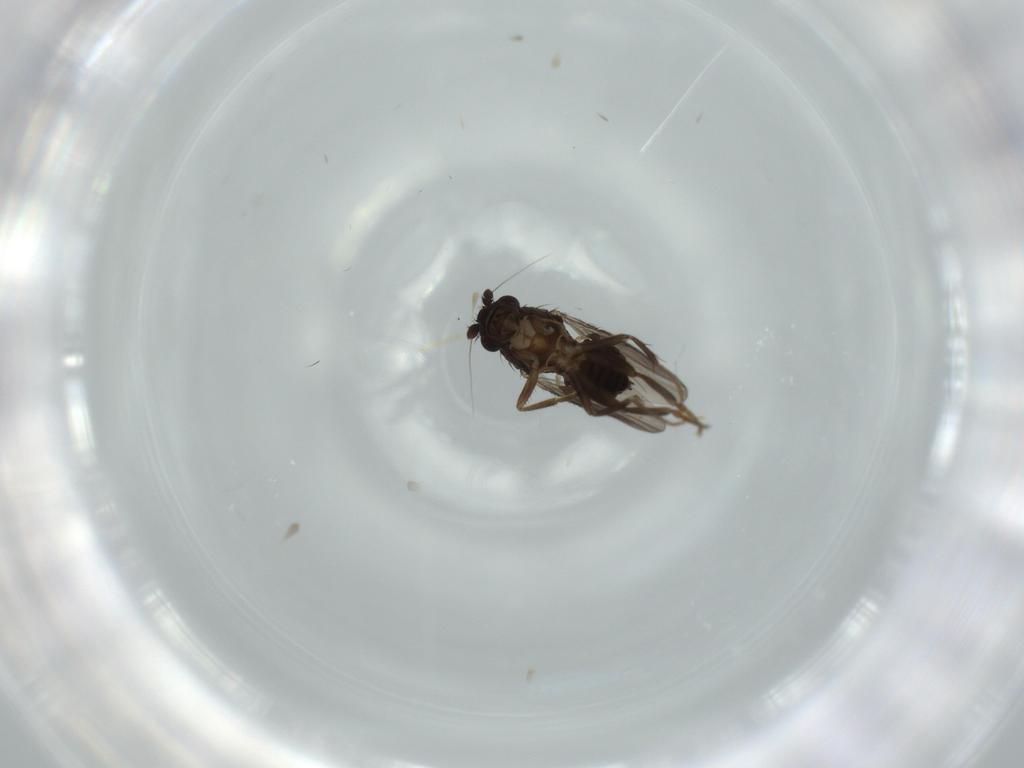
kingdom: Animalia
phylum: Arthropoda
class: Insecta
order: Diptera
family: Sphaeroceridae
